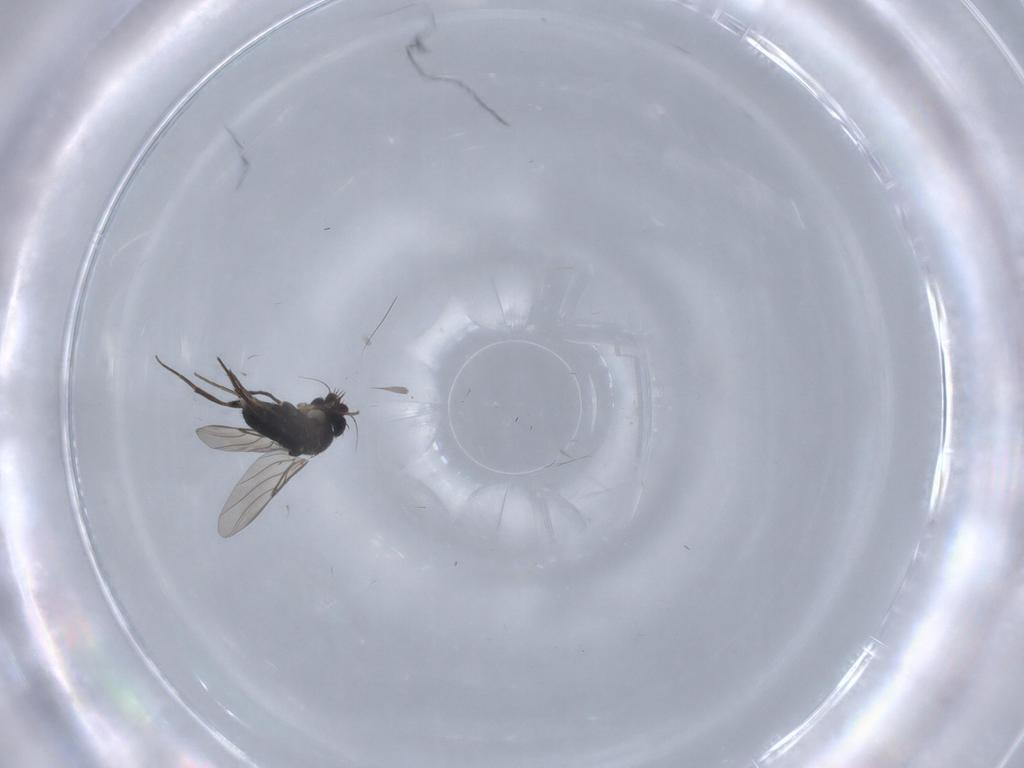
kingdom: Animalia
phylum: Arthropoda
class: Insecta
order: Diptera
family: Phoridae
